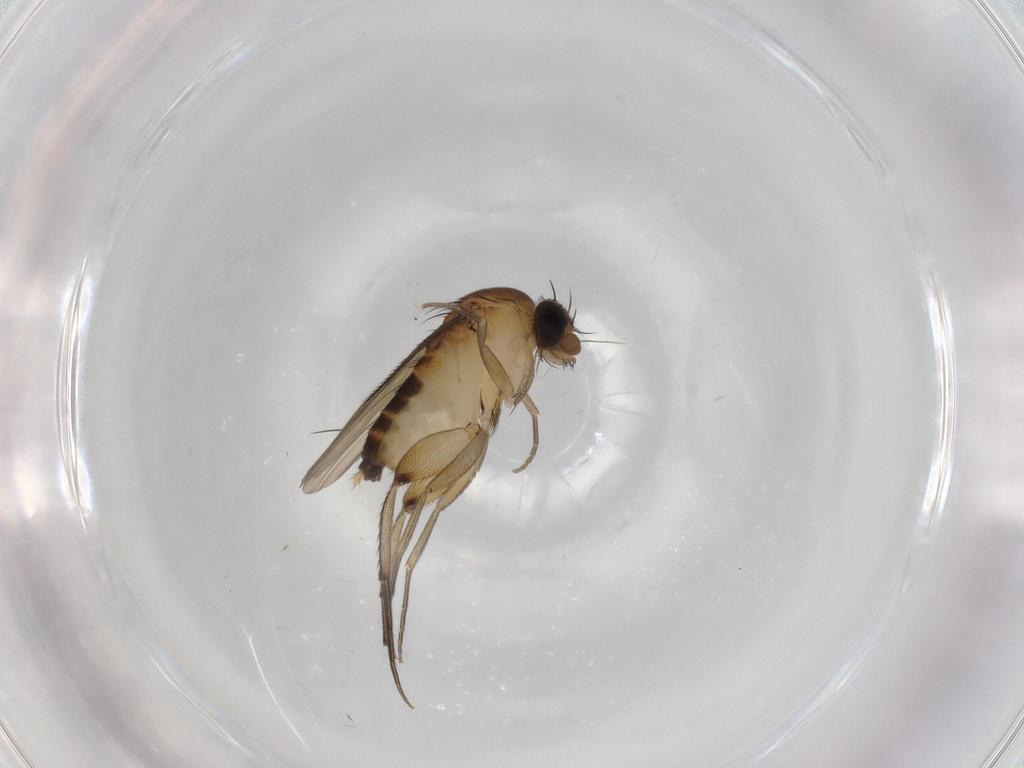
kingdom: Animalia
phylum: Arthropoda
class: Insecta
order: Diptera
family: Phoridae
